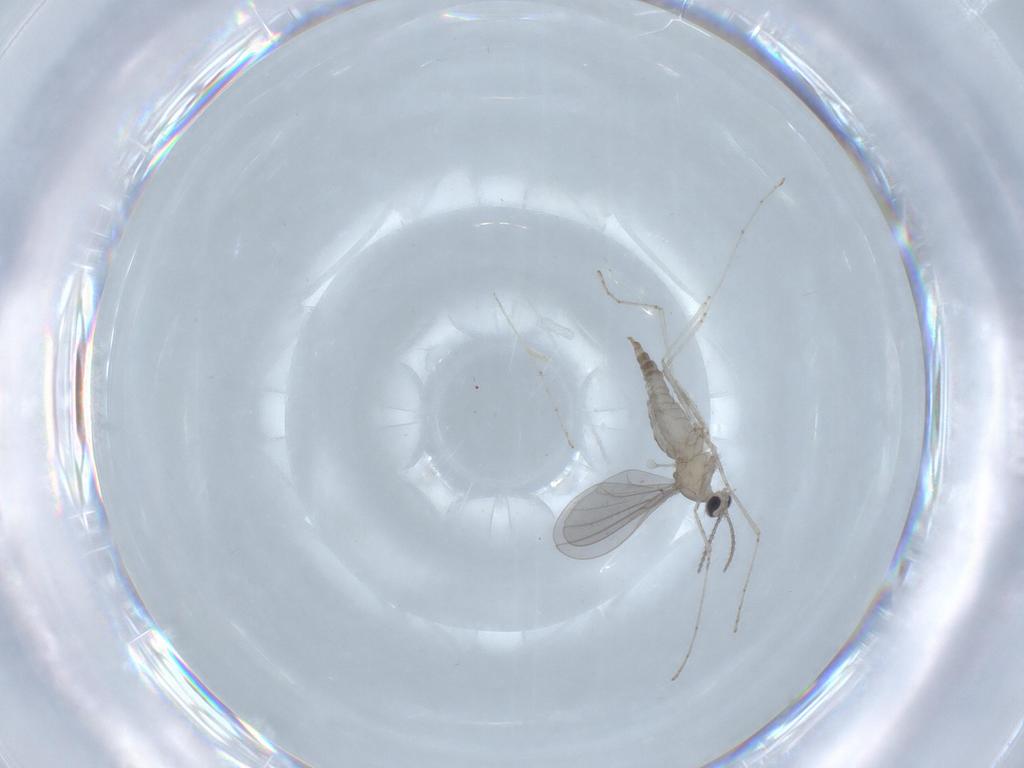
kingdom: Animalia
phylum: Arthropoda
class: Insecta
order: Diptera
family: Cecidomyiidae
